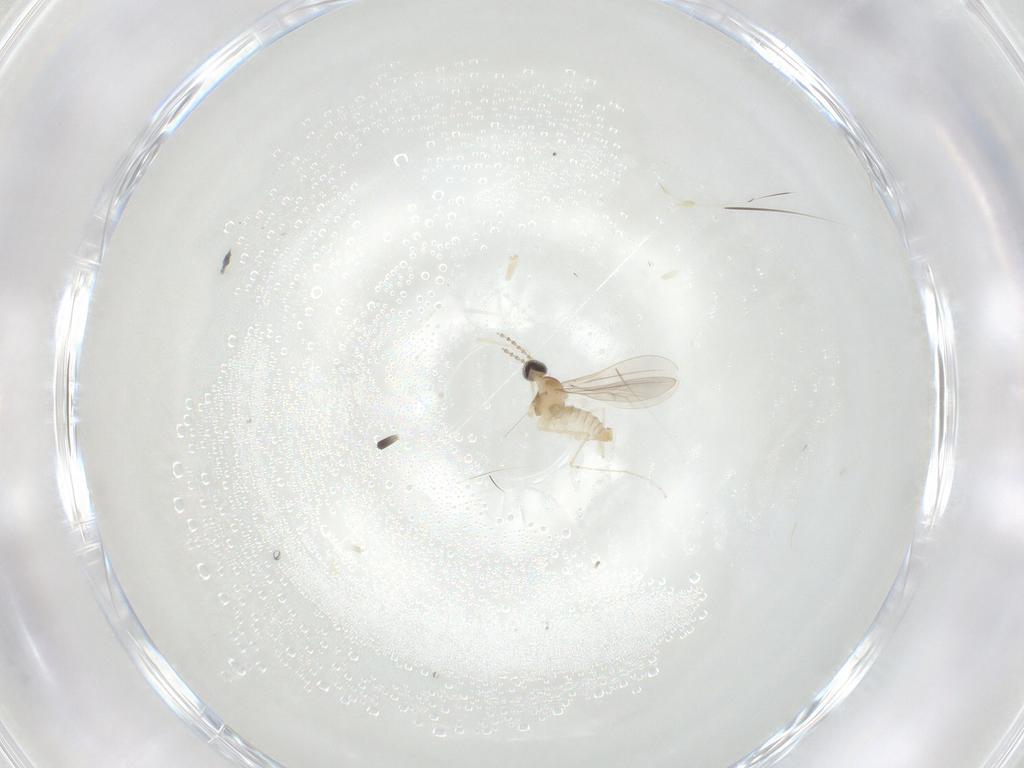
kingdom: Animalia
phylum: Arthropoda
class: Insecta
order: Diptera
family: Cecidomyiidae
